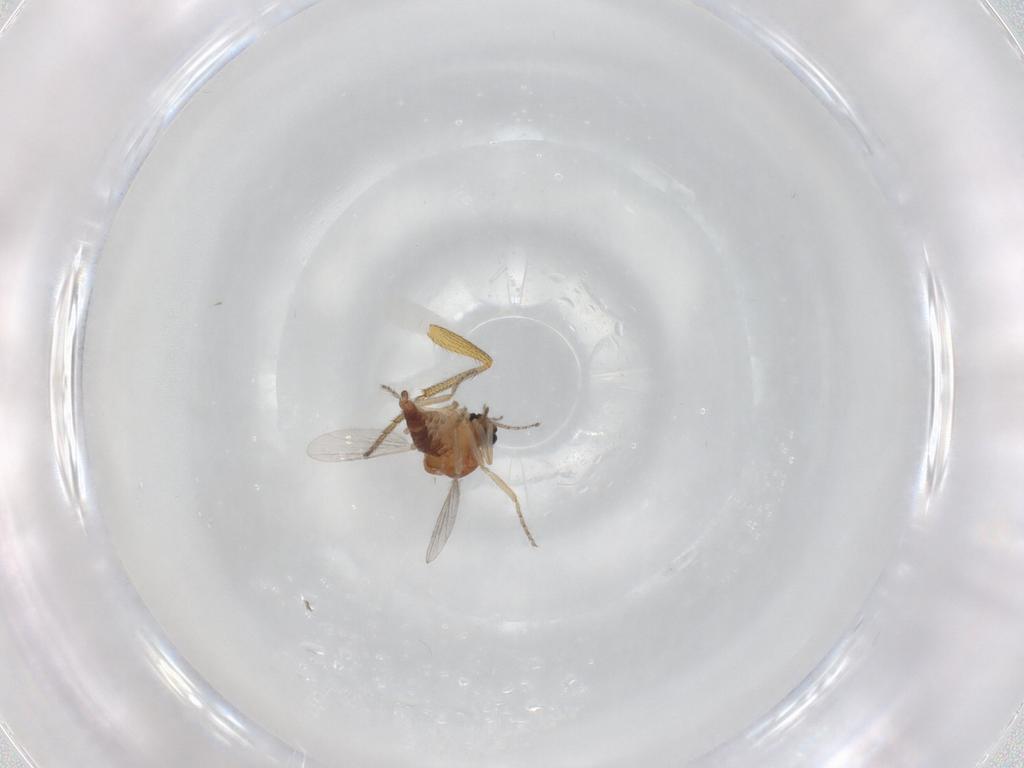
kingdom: Animalia
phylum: Arthropoda
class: Insecta
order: Diptera
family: Ceratopogonidae
